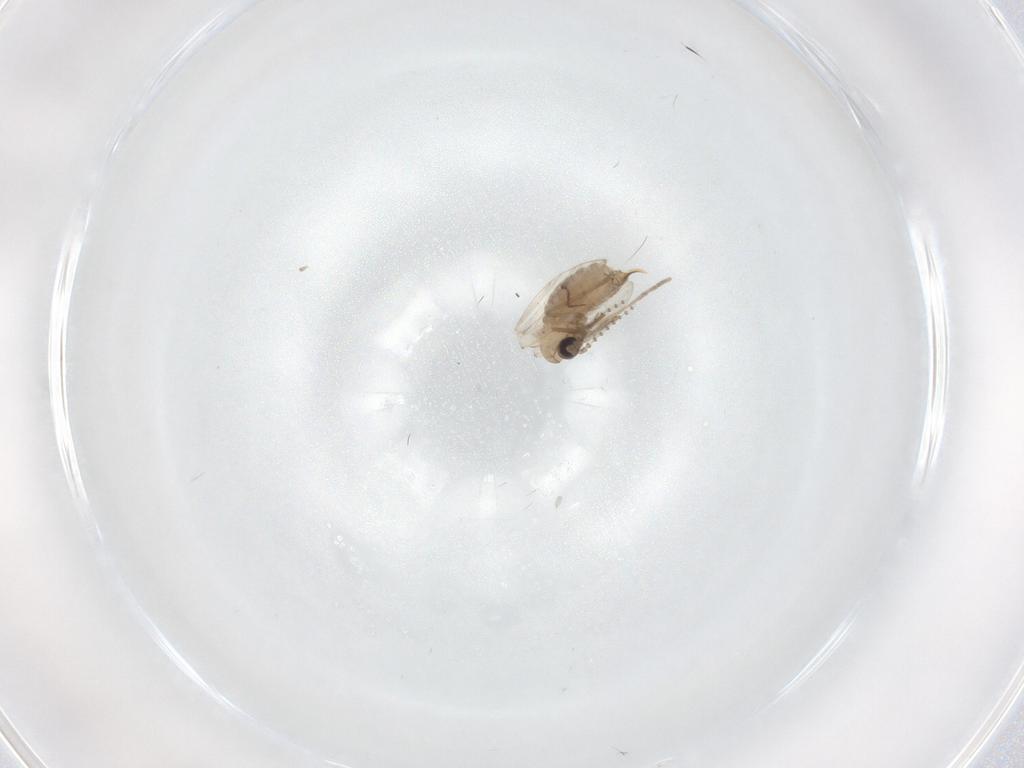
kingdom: Animalia
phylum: Arthropoda
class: Insecta
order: Diptera
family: Psychodidae
